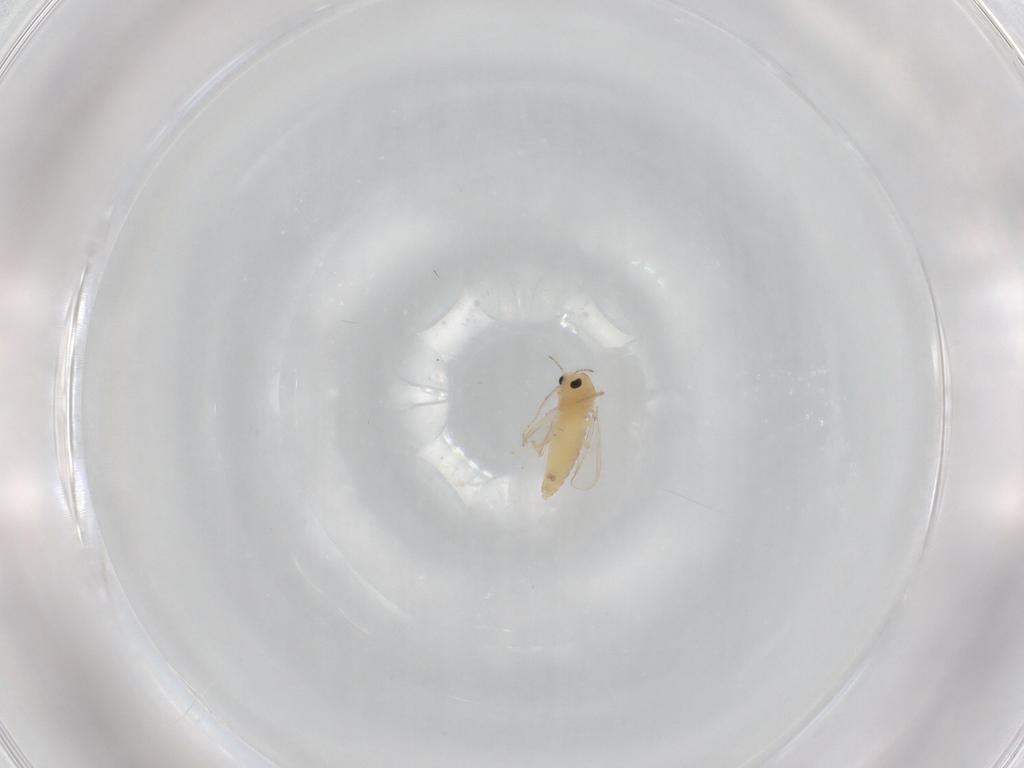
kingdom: Animalia
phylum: Arthropoda
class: Insecta
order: Diptera
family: Chironomidae
